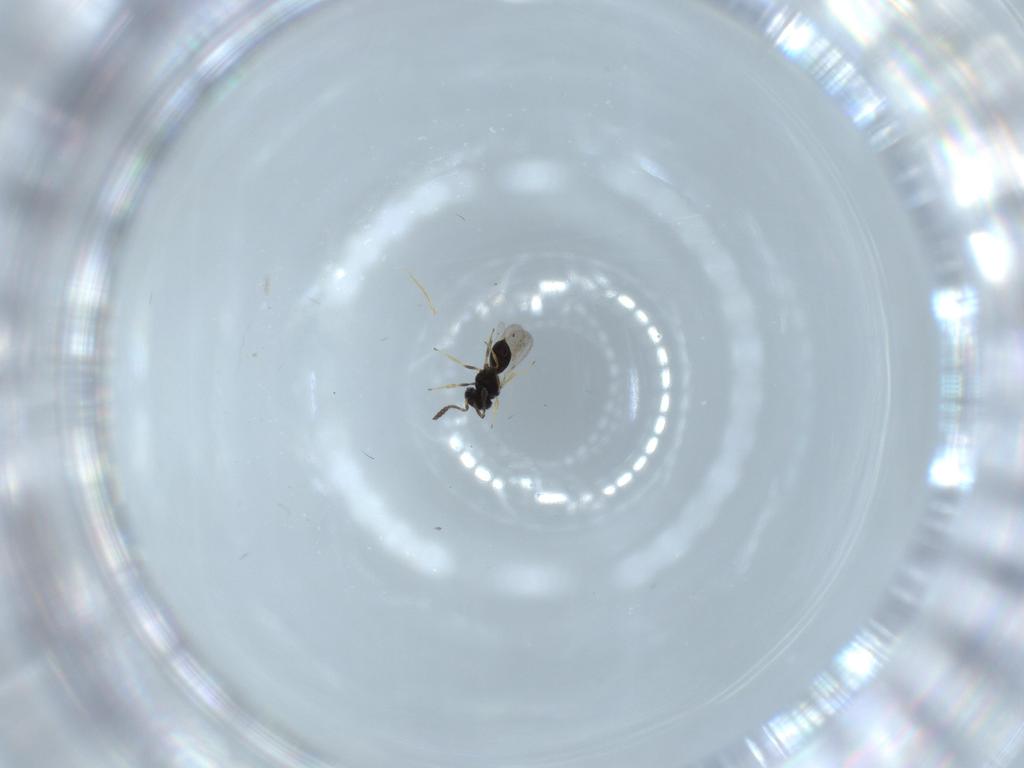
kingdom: Animalia
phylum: Arthropoda
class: Insecta
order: Hymenoptera
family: Scelionidae
